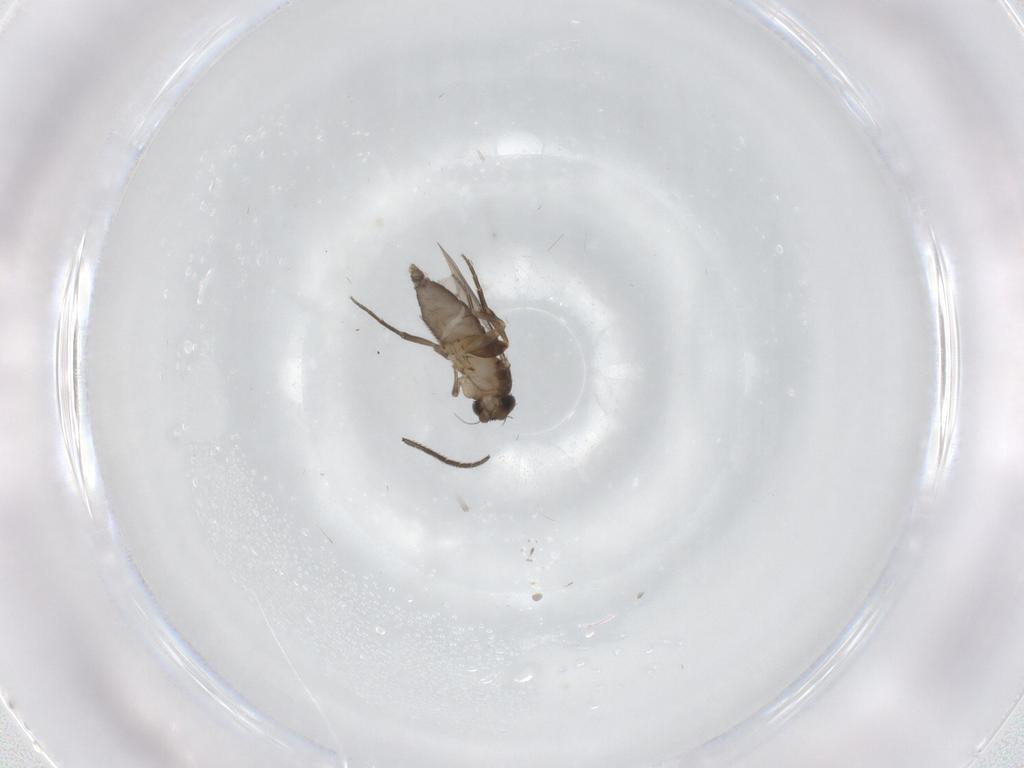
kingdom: Animalia
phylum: Arthropoda
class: Insecta
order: Diptera
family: Phoridae
